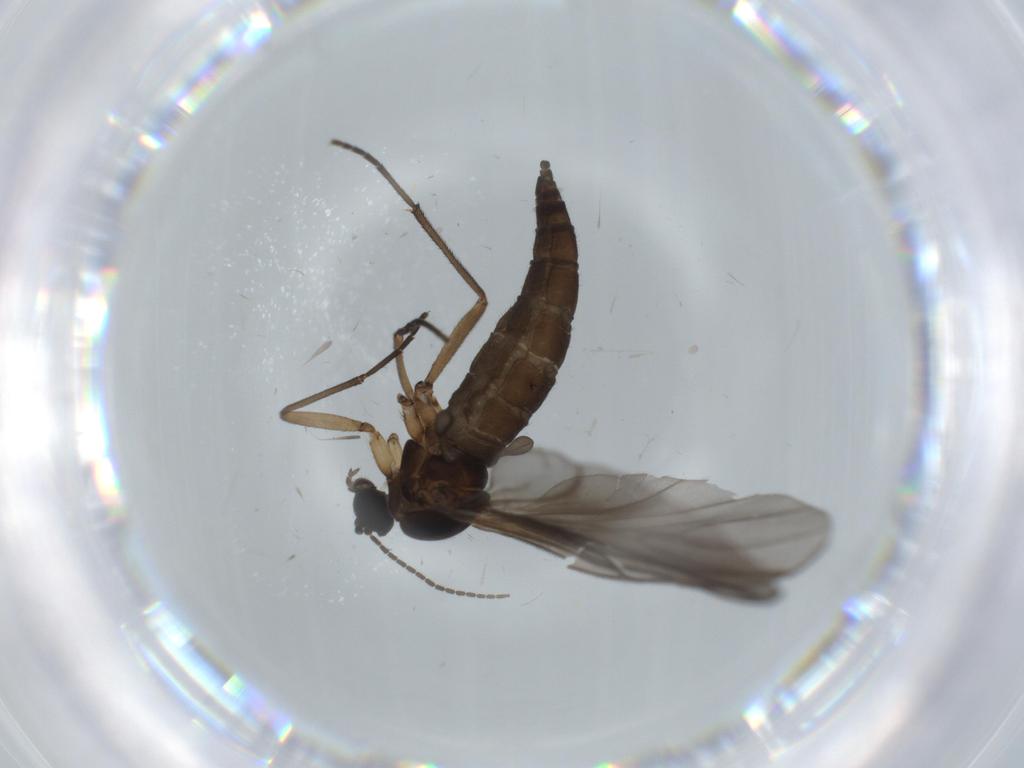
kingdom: Animalia
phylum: Arthropoda
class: Insecta
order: Diptera
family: Sciaridae
